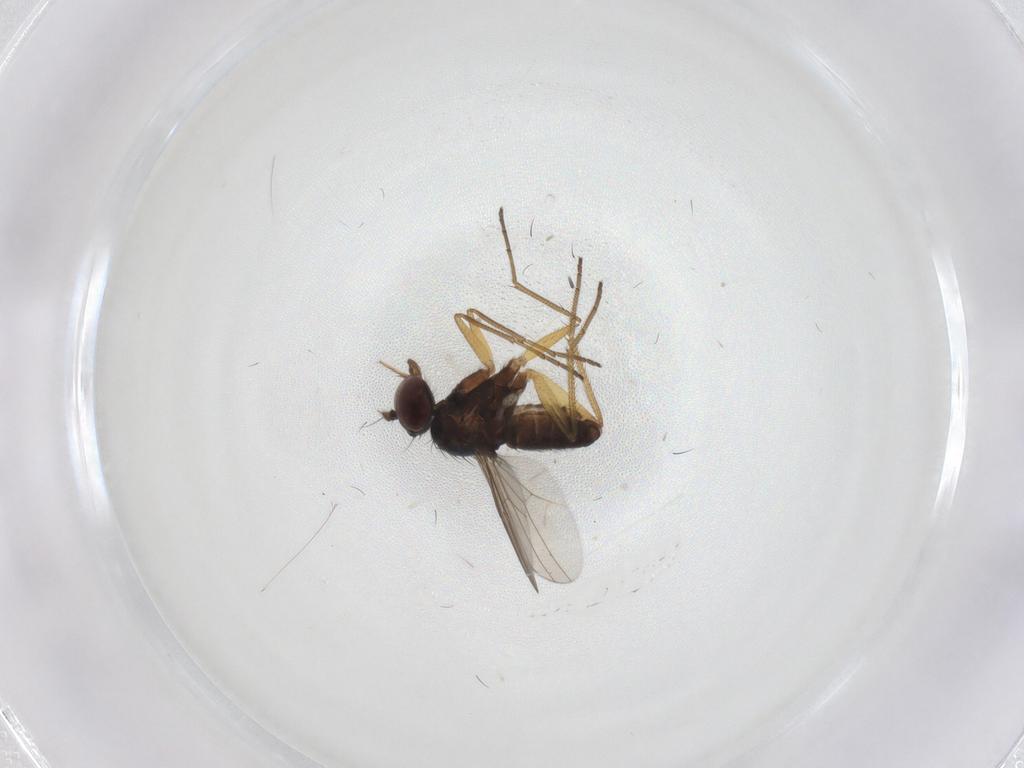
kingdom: Animalia
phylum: Arthropoda
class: Insecta
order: Diptera
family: Dolichopodidae
